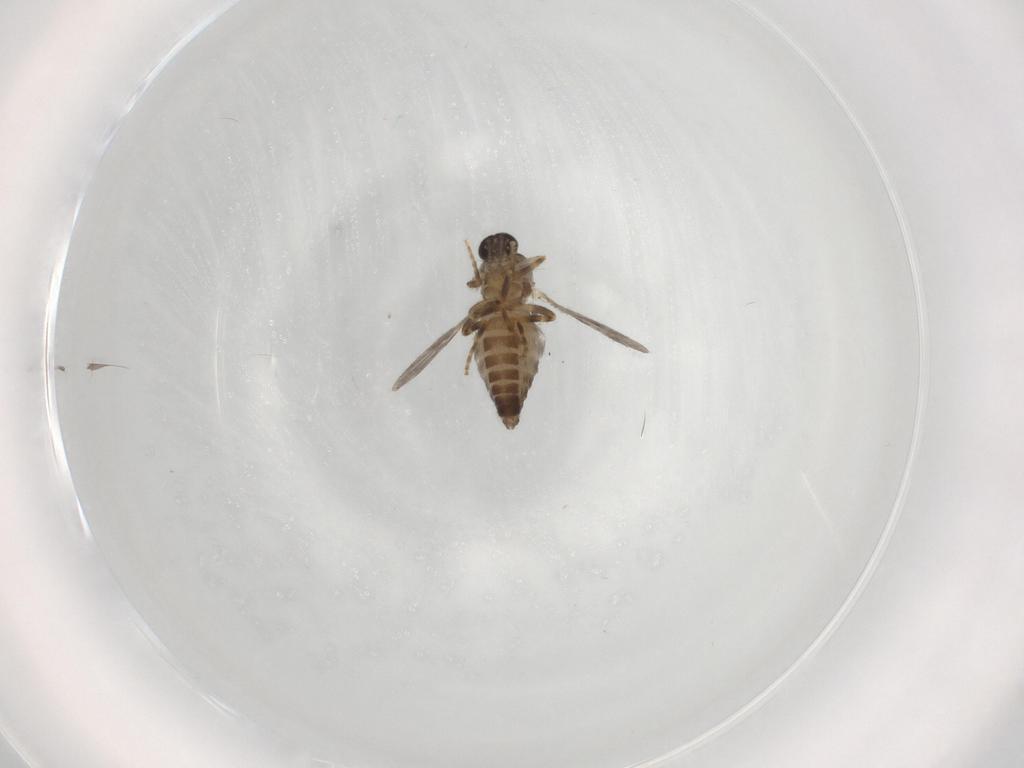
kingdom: Animalia
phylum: Arthropoda
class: Insecta
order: Diptera
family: Ceratopogonidae
